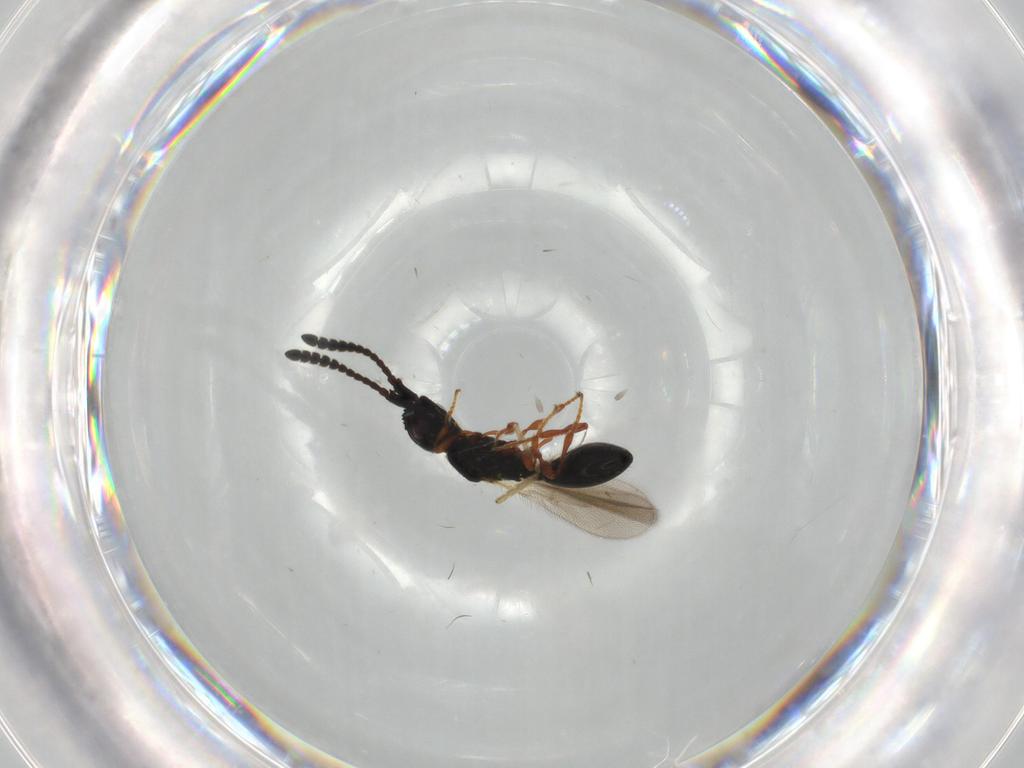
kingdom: Animalia
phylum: Arthropoda
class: Insecta
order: Hymenoptera
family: Diapriidae
